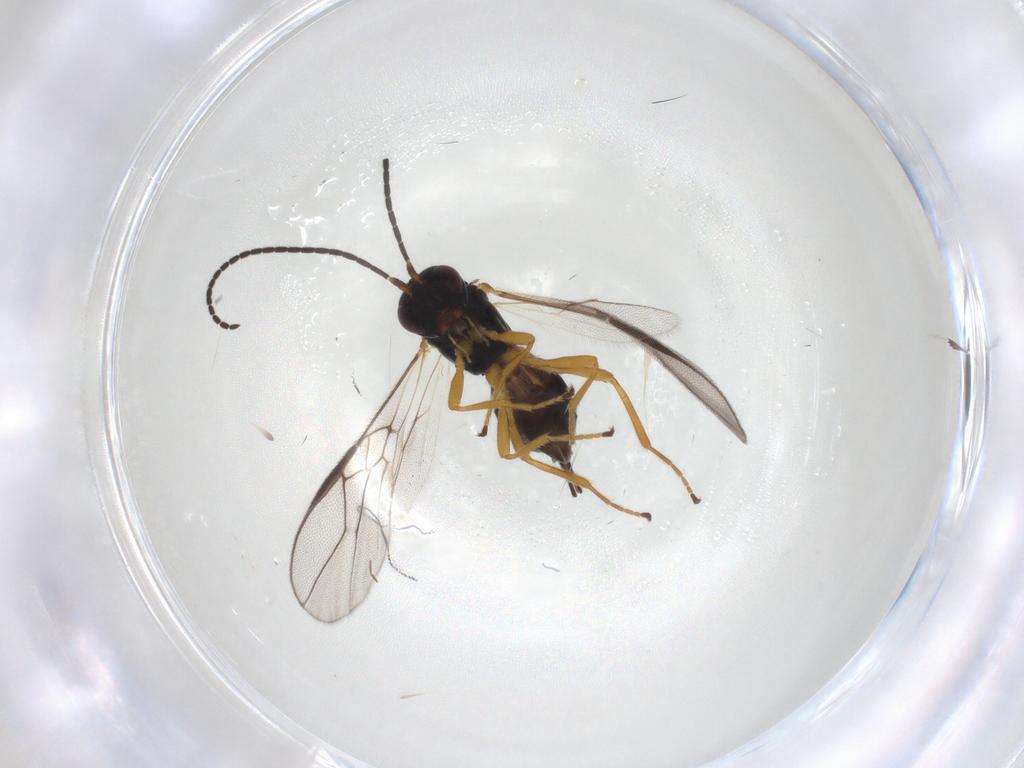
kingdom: Animalia
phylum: Arthropoda
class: Insecta
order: Hymenoptera
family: Braconidae
